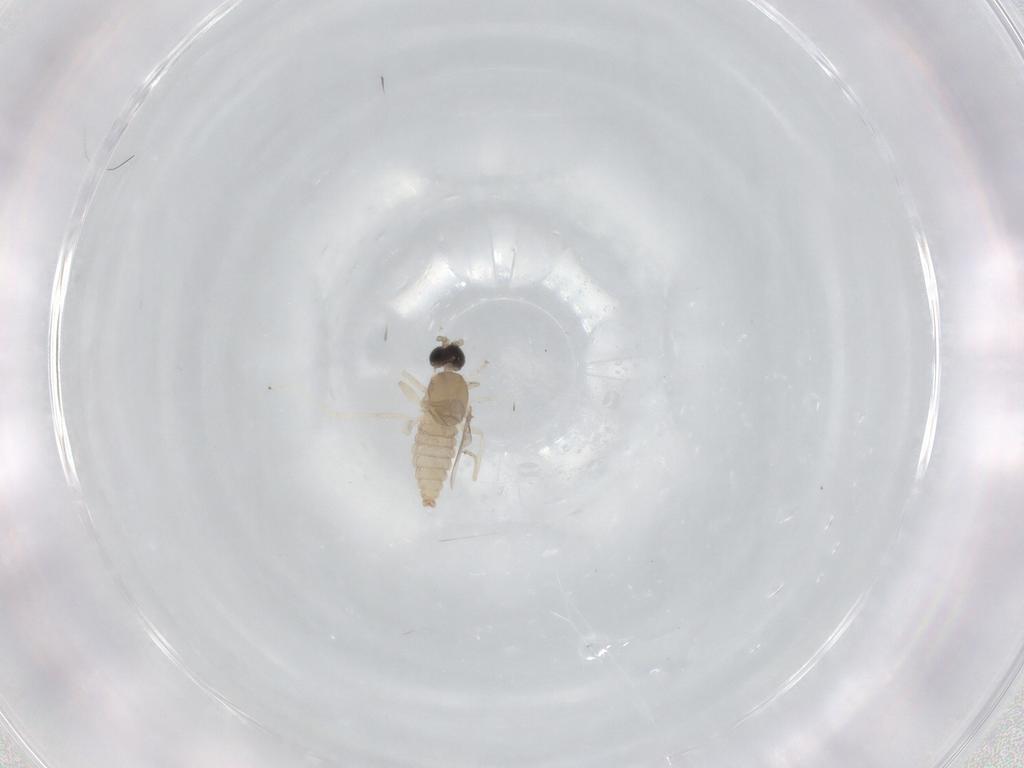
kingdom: Animalia
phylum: Arthropoda
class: Insecta
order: Diptera
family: Cecidomyiidae
